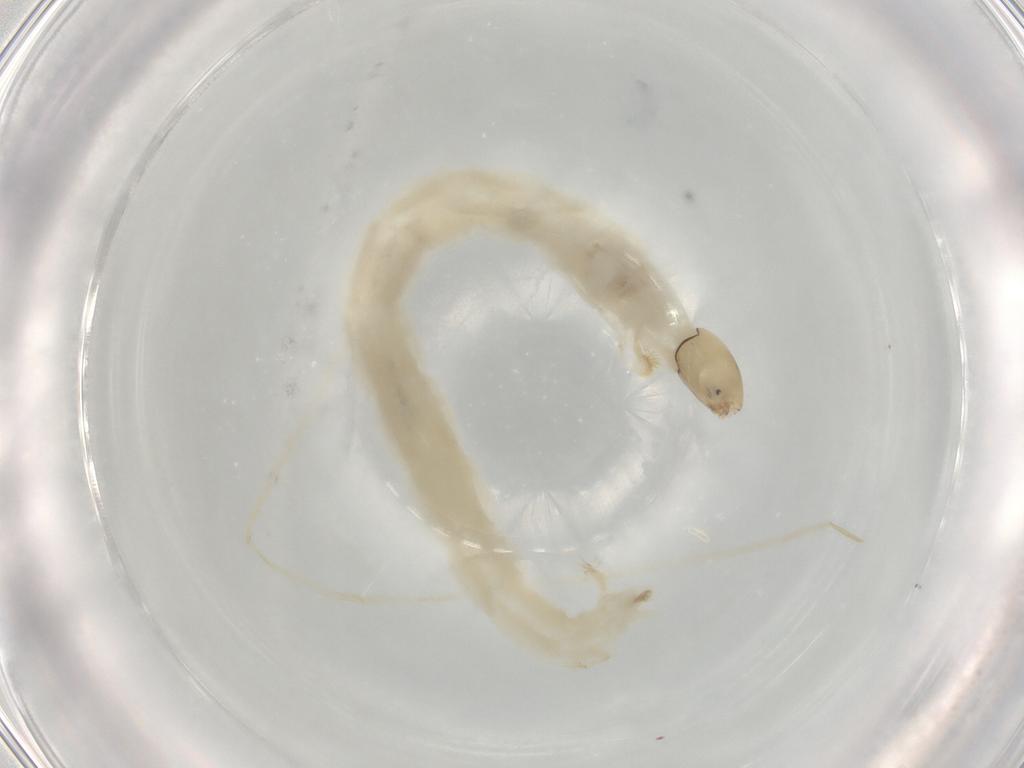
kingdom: Animalia
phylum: Arthropoda
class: Insecta
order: Diptera
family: Chironomidae
